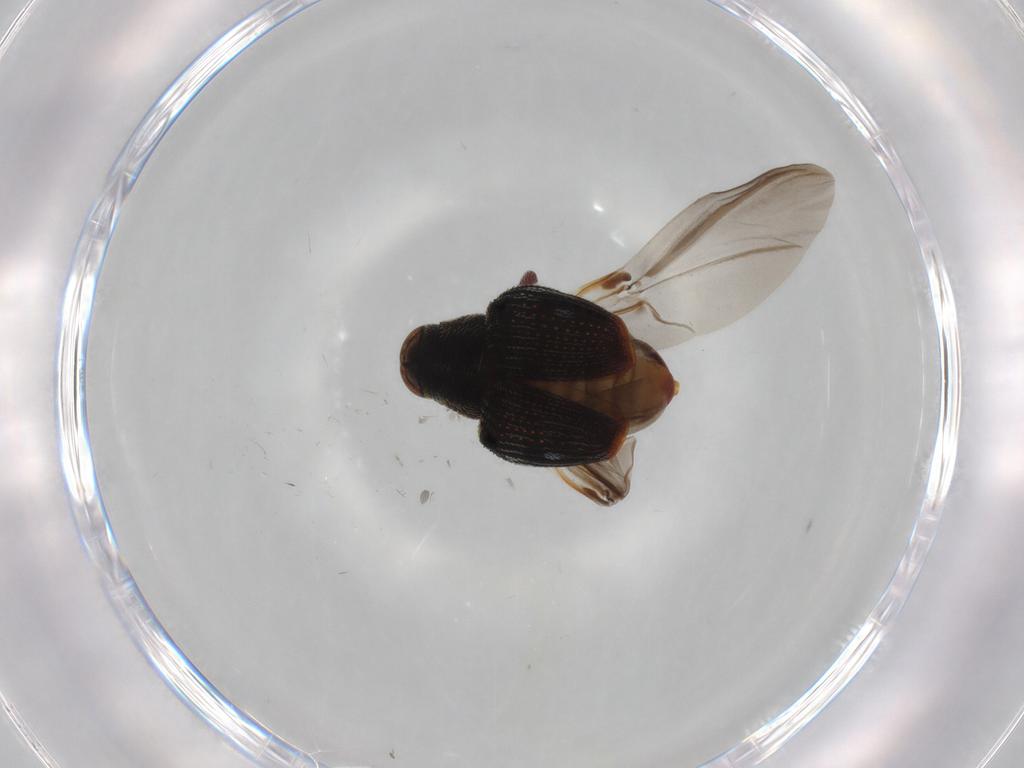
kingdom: Animalia
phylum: Arthropoda
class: Insecta
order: Coleoptera
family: Curculionidae
